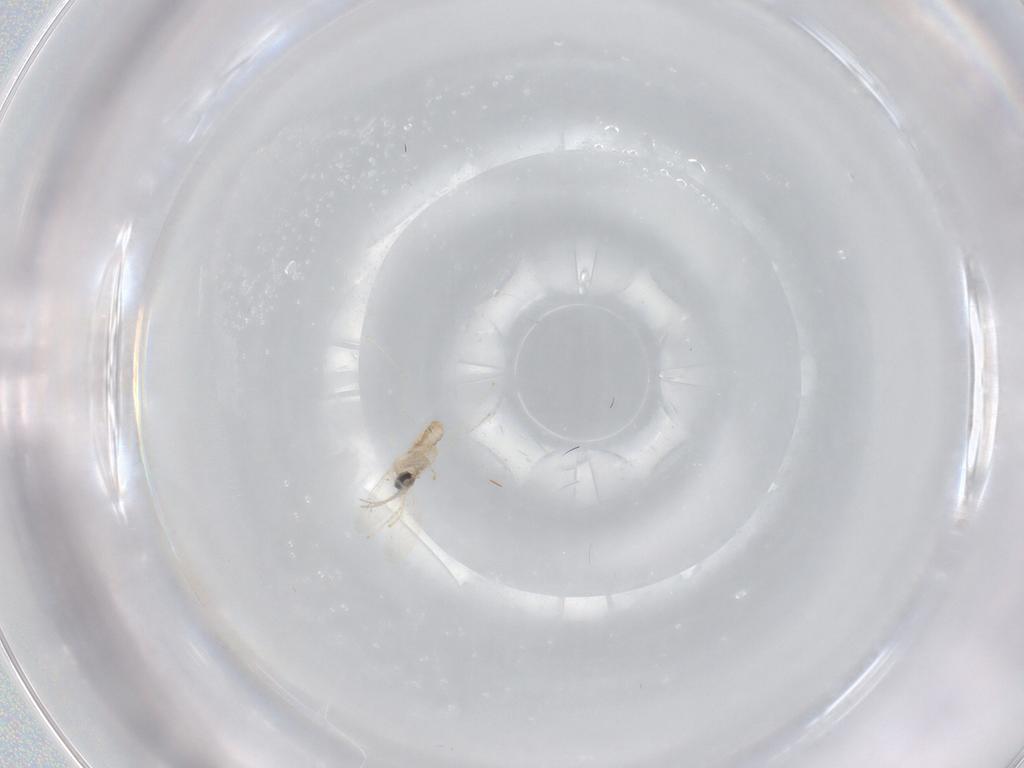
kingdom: Animalia
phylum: Arthropoda
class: Insecta
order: Diptera
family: Cecidomyiidae
